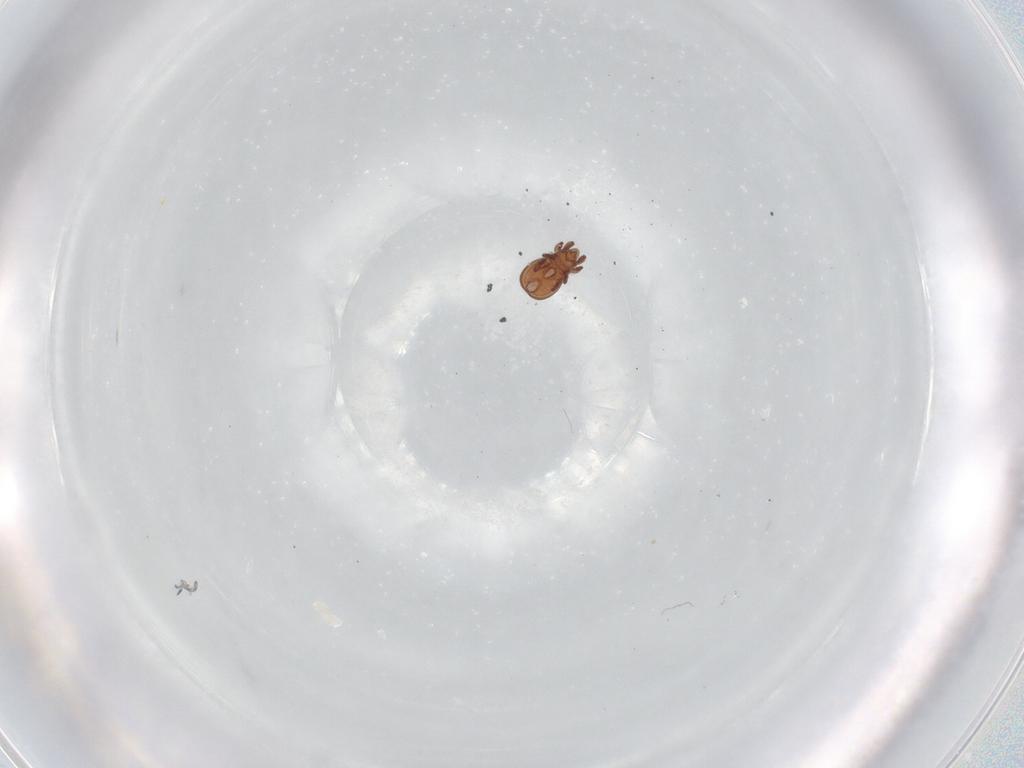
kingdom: Animalia
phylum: Arthropoda
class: Arachnida
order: Sarcoptiformes
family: Eremaeidae
